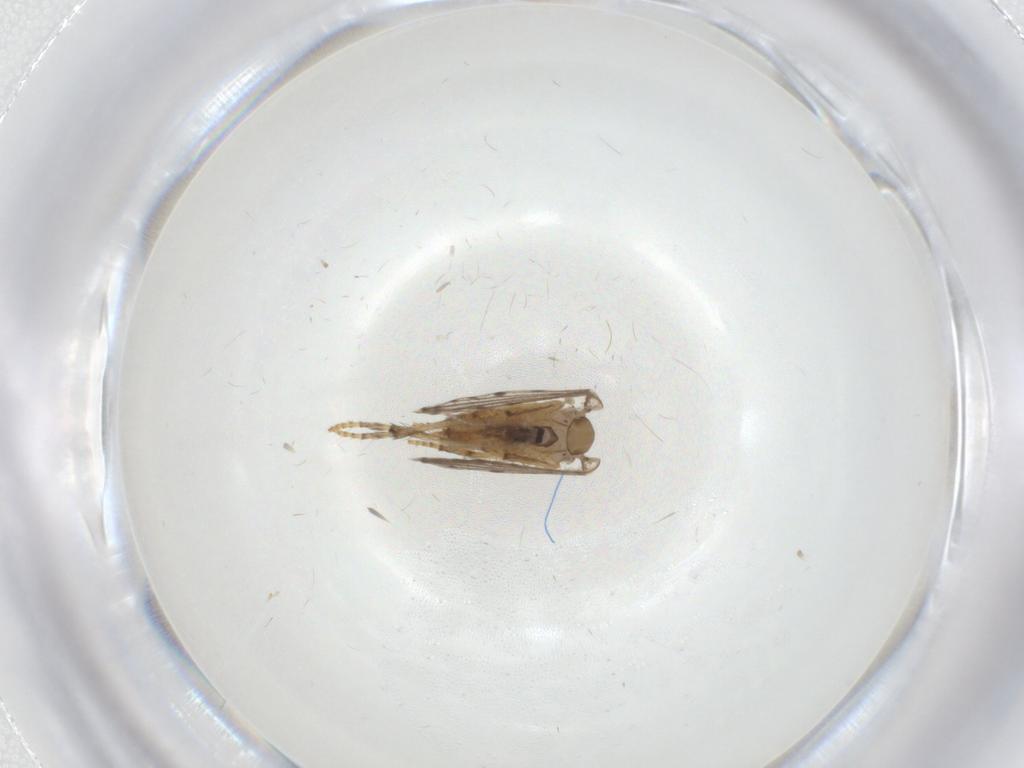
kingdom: Animalia
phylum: Arthropoda
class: Insecta
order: Diptera
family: Psychodidae
